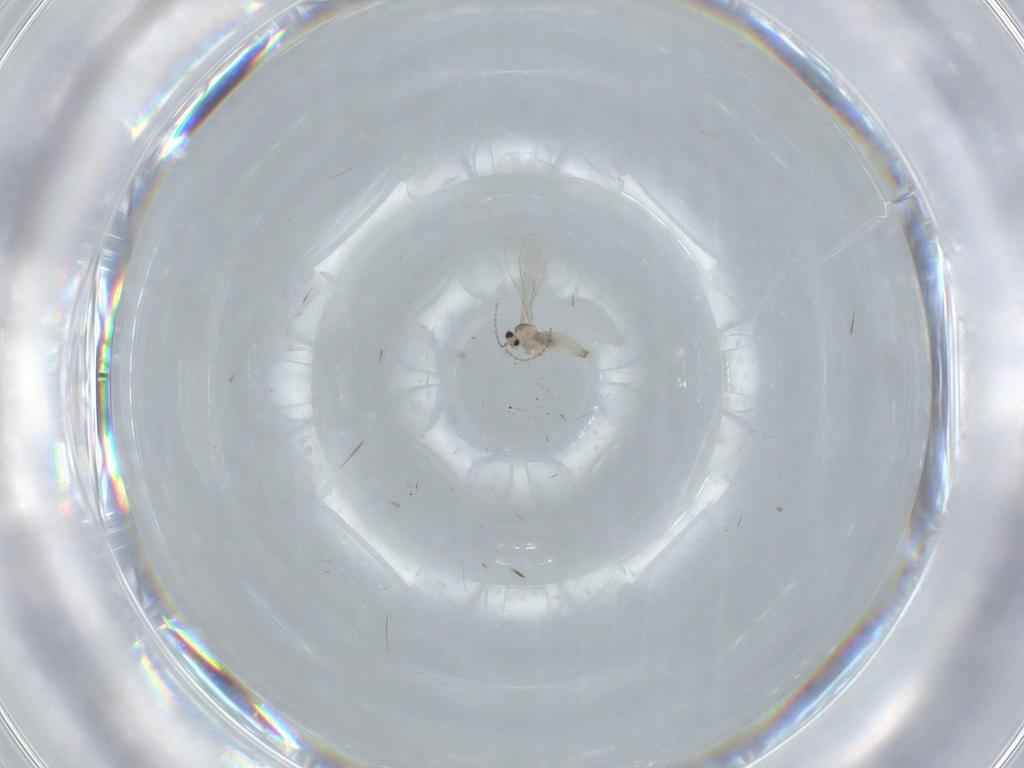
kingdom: Animalia
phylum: Arthropoda
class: Insecta
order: Diptera
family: Cecidomyiidae
